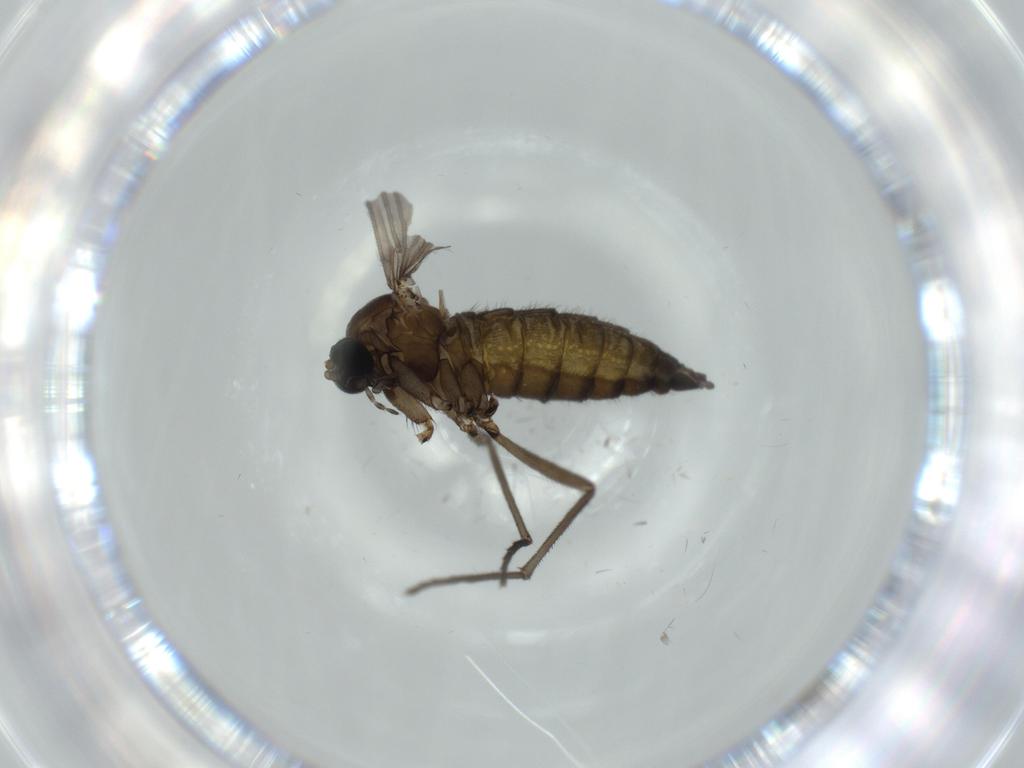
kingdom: Animalia
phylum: Arthropoda
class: Insecta
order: Diptera
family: Sciaridae
